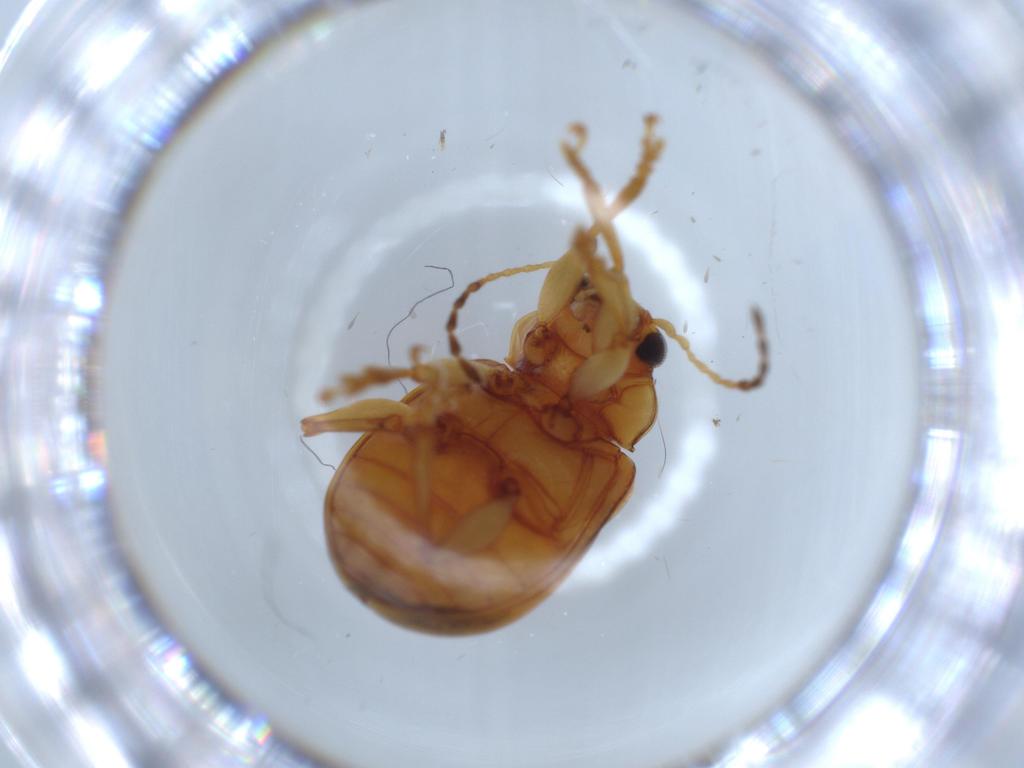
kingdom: Animalia
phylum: Arthropoda
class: Insecta
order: Coleoptera
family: Chrysomelidae
